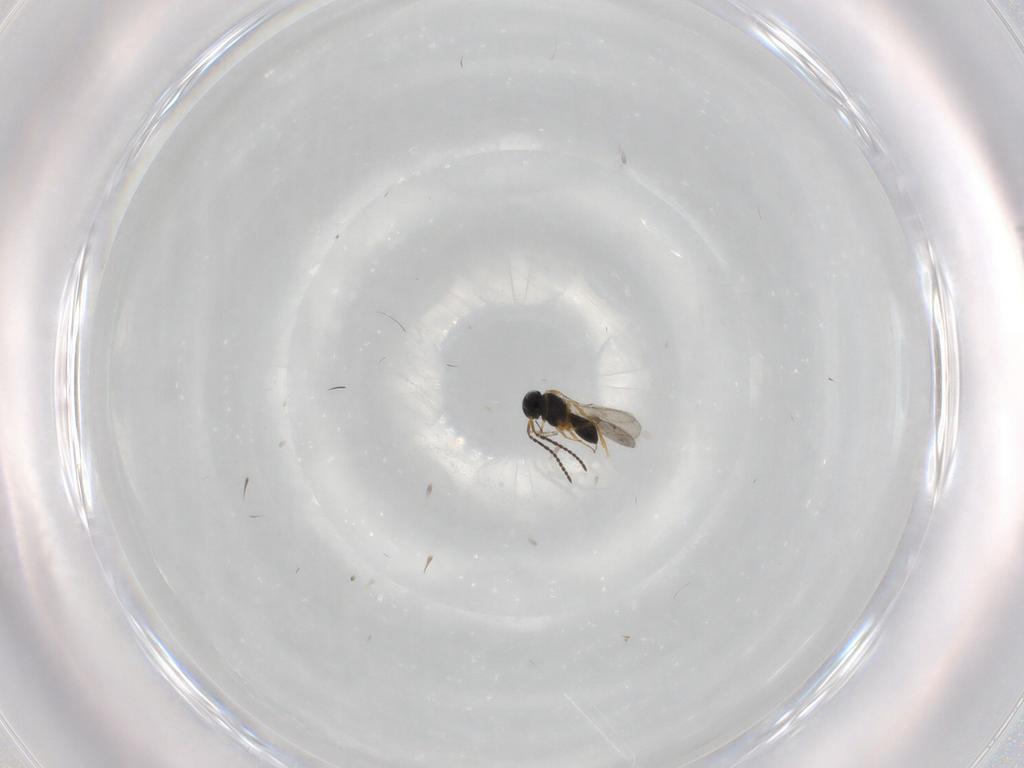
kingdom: Animalia
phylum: Arthropoda
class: Insecta
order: Hymenoptera
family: Scelionidae
